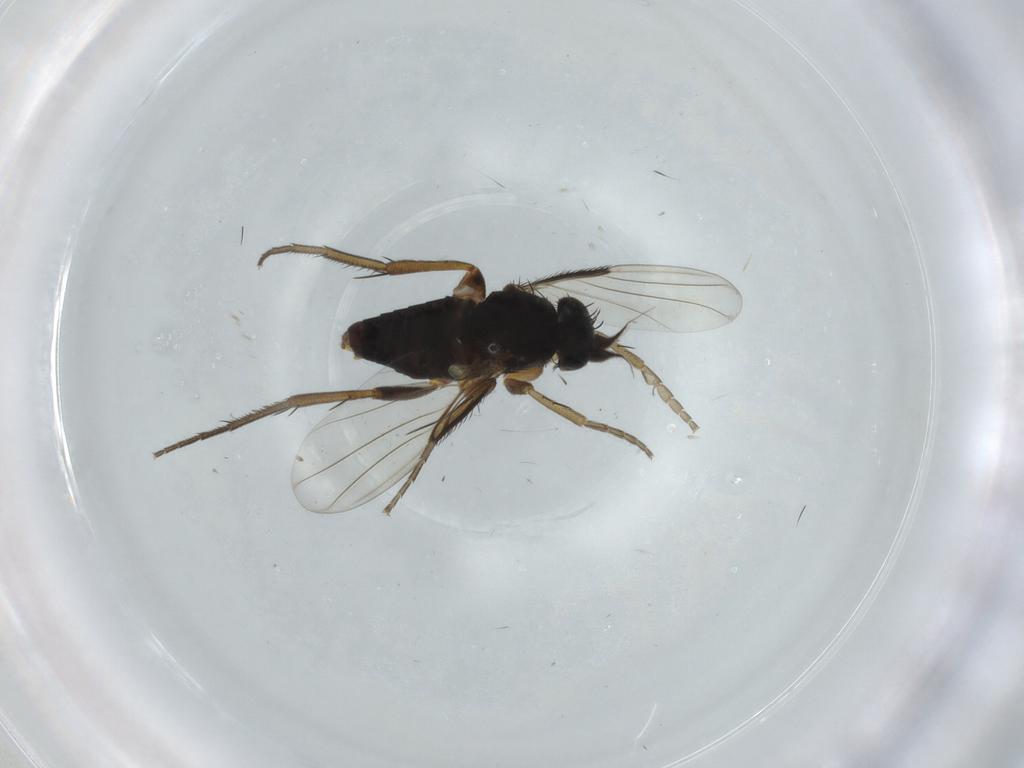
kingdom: Animalia
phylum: Arthropoda
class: Insecta
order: Diptera
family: Phoridae
